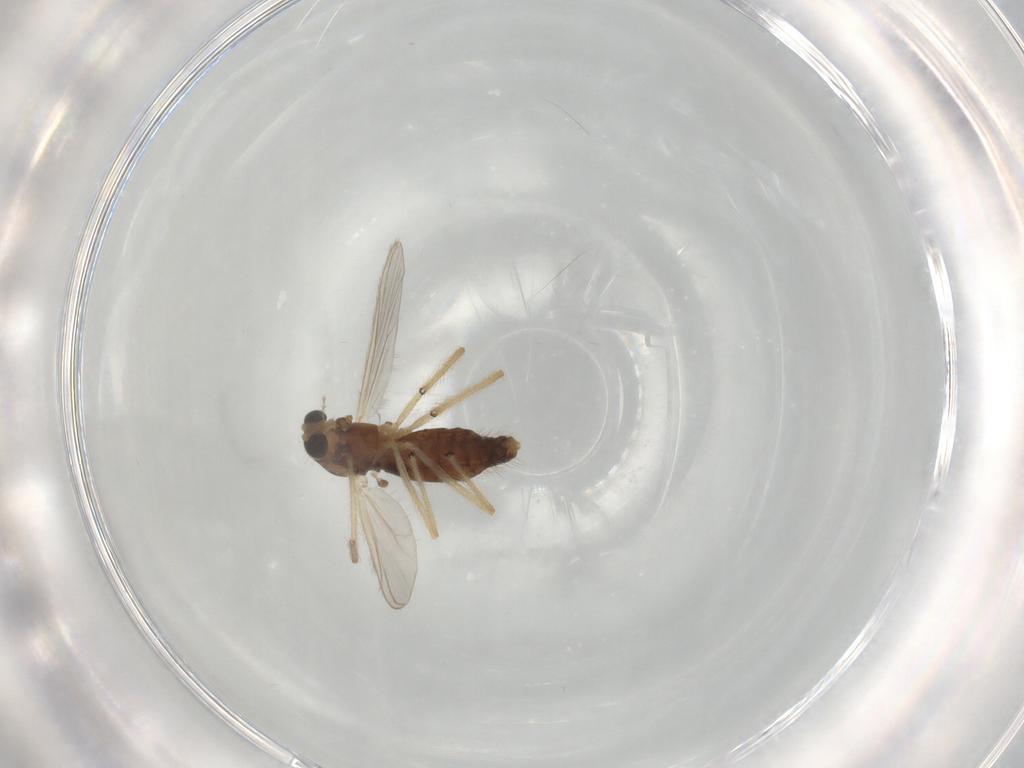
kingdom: Animalia
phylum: Arthropoda
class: Insecta
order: Diptera
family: Chironomidae
